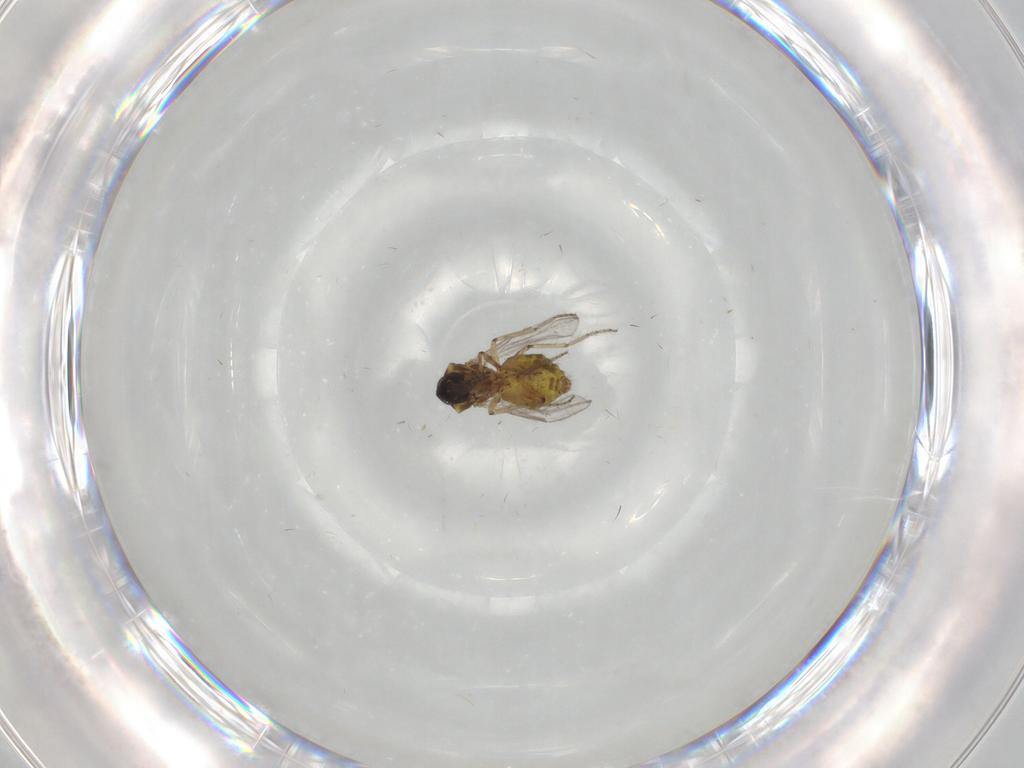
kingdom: Animalia
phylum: Arthropoda
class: Insecta
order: Diptera
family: Ceratopogonidae
